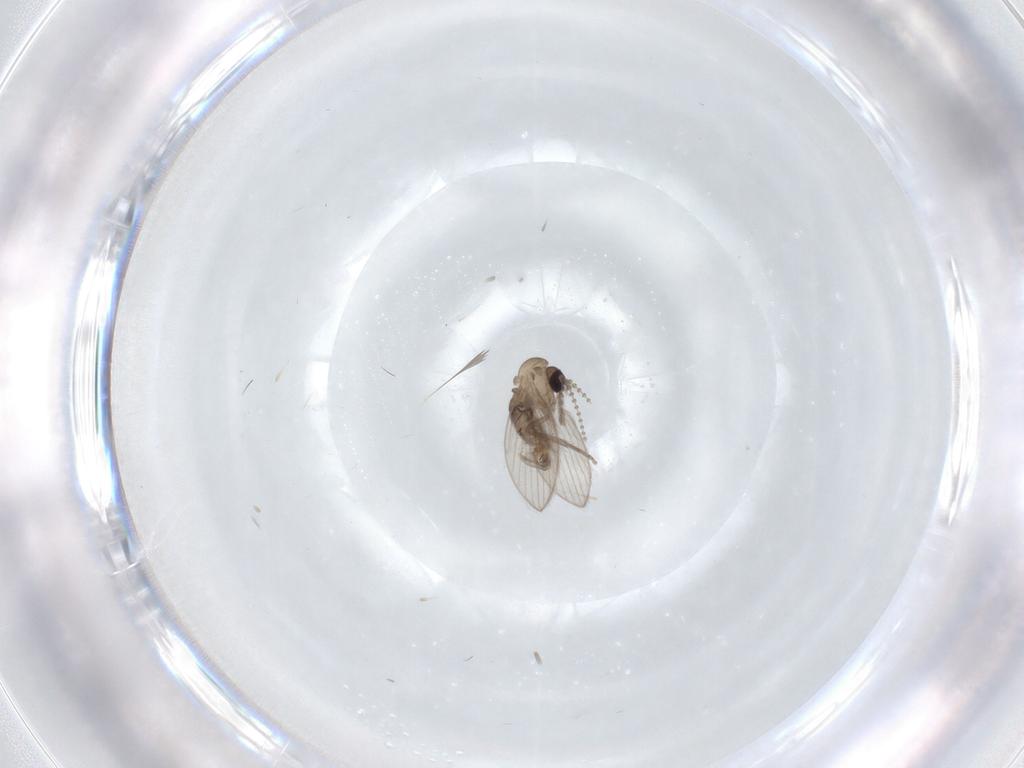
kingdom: Animalia
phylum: Arthropoda
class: Insecta
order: Diptera
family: Psychodidae
